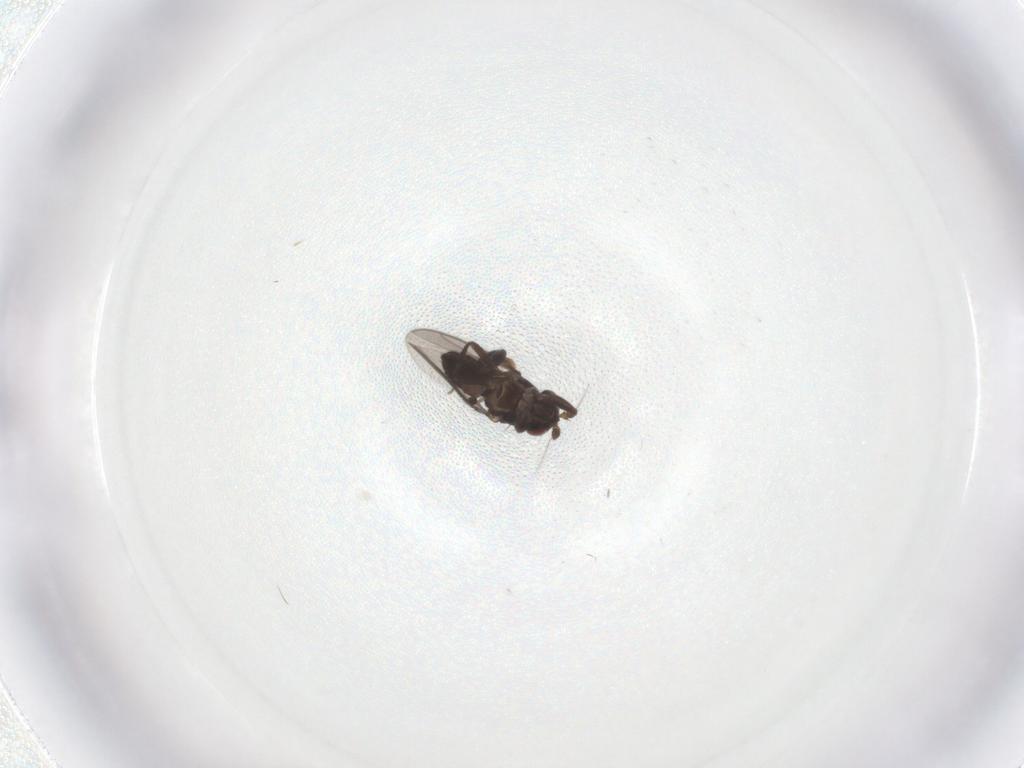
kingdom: Animalia
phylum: Arthropoda
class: Insecta
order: Diptera
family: Sphaeroceridae
